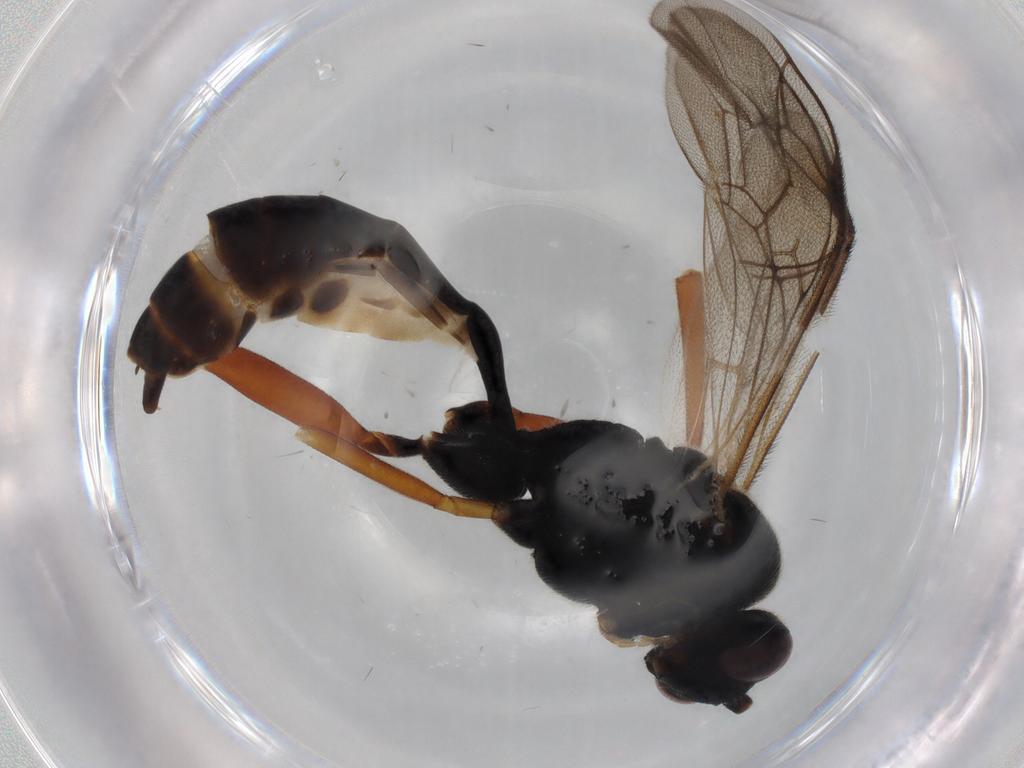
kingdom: Animalia
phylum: Arthropoda
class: Insecta
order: Hymenoptera
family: Ichneumonidae
